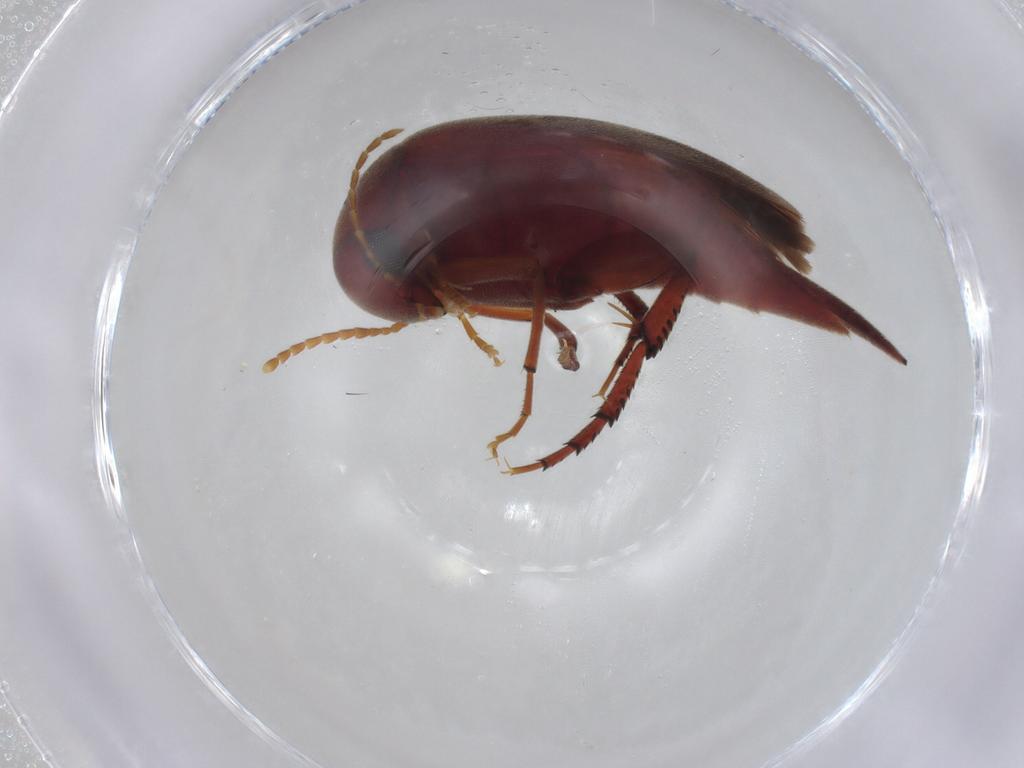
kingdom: Animalia
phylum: Arthropoda
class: Insecta
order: Coleoptera
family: Mordellidae
